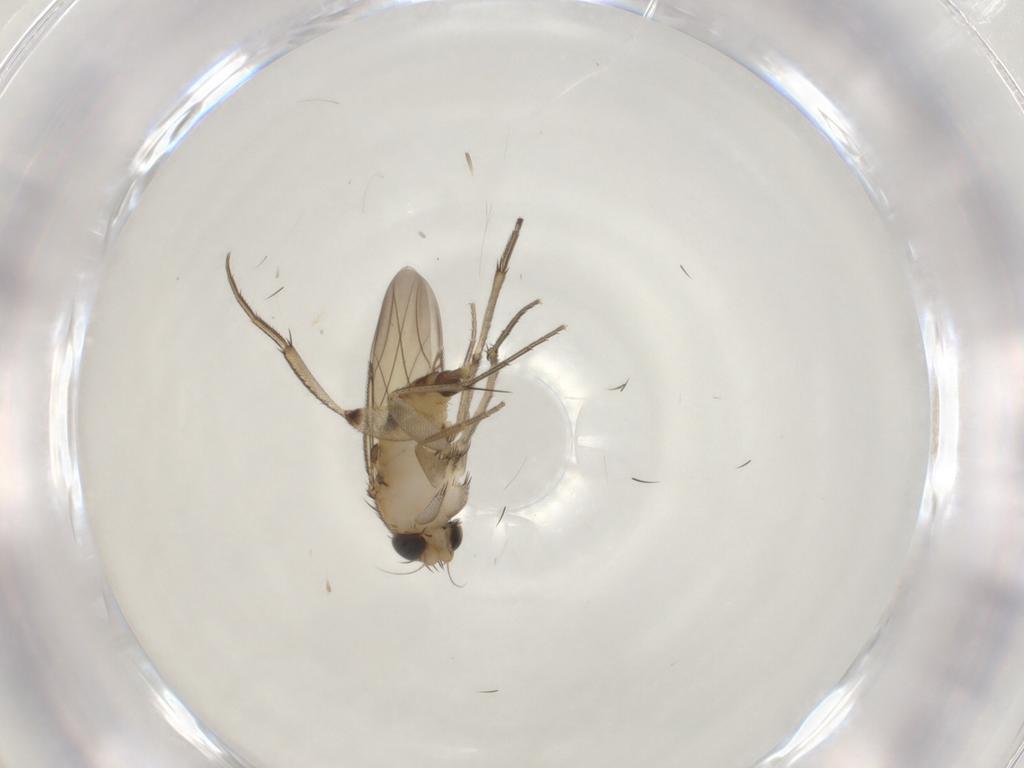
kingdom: Animalia
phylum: Arthropoda
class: Insecta
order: Diptera
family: Phoridae
